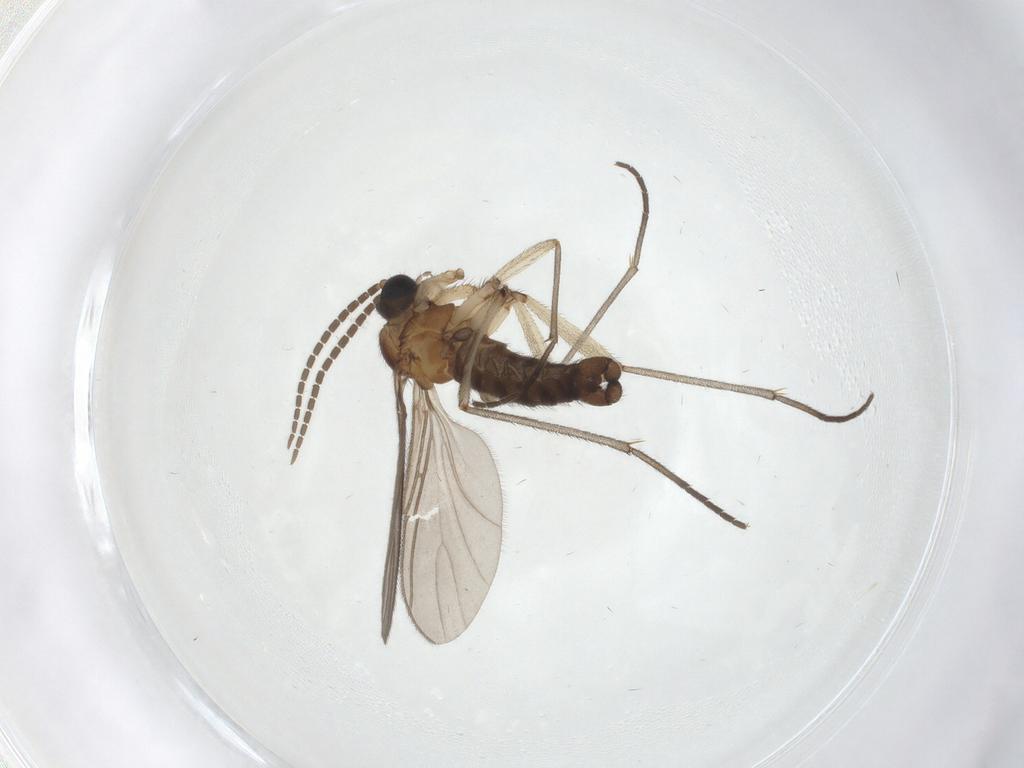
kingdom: Animalia
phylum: Arthropoda
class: Insecta
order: Diptera
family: Sciaridae
